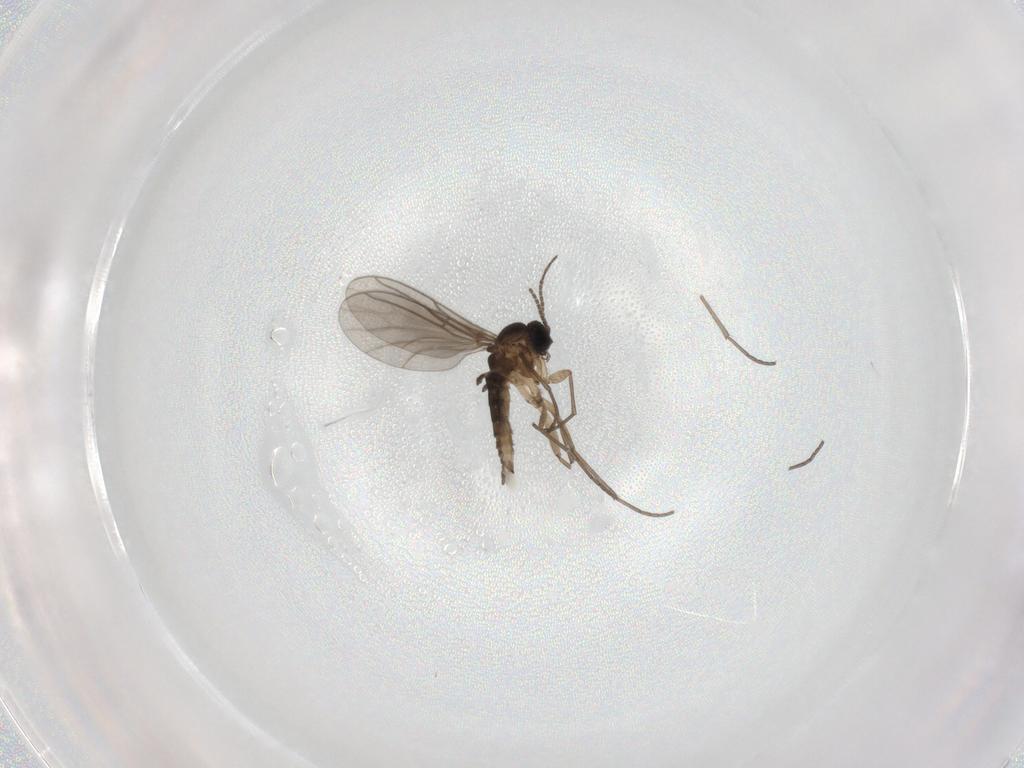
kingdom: Animalia
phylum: Arthropoda
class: Insecta
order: Diptera
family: Sciaridae
